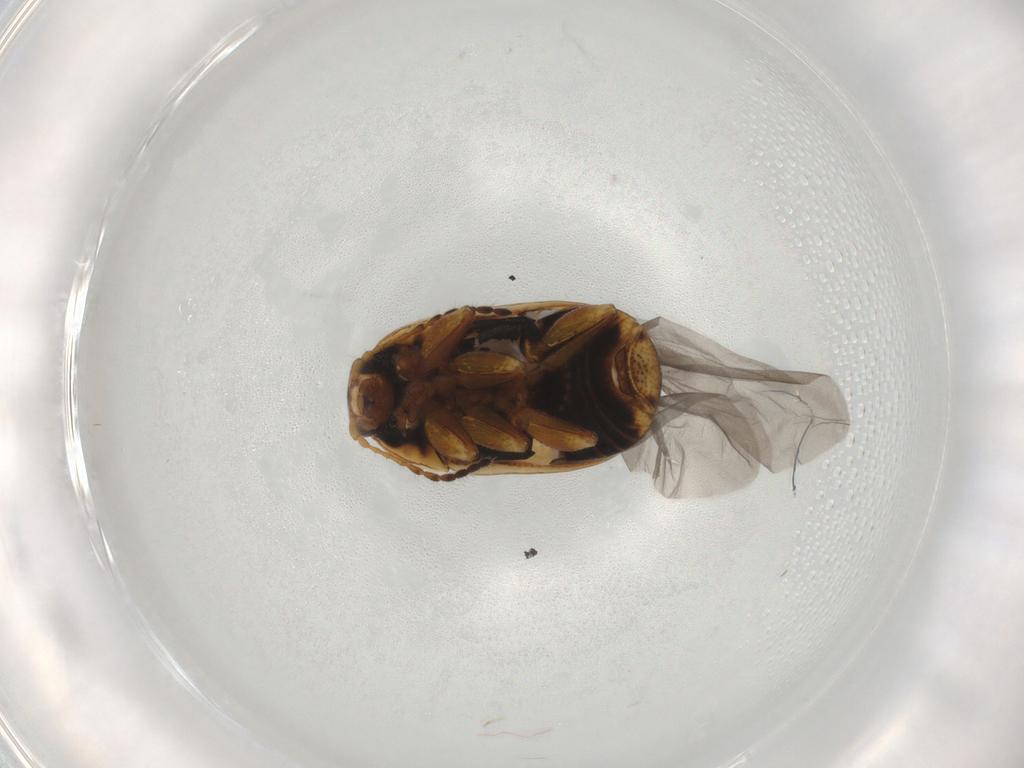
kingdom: Animalia
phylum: Arthropoda
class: Insecta
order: Coleoptera
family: Chrysomelidae
